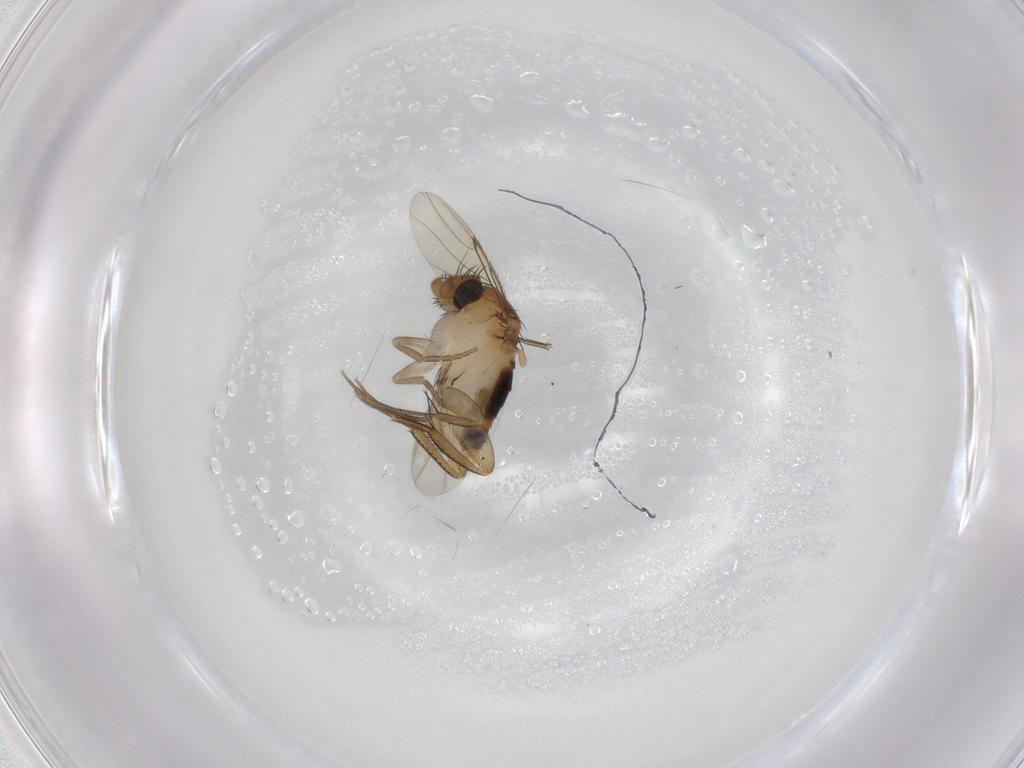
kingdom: Animalia
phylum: Arthropoda
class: Insecta
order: Diptera
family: Phoridae
